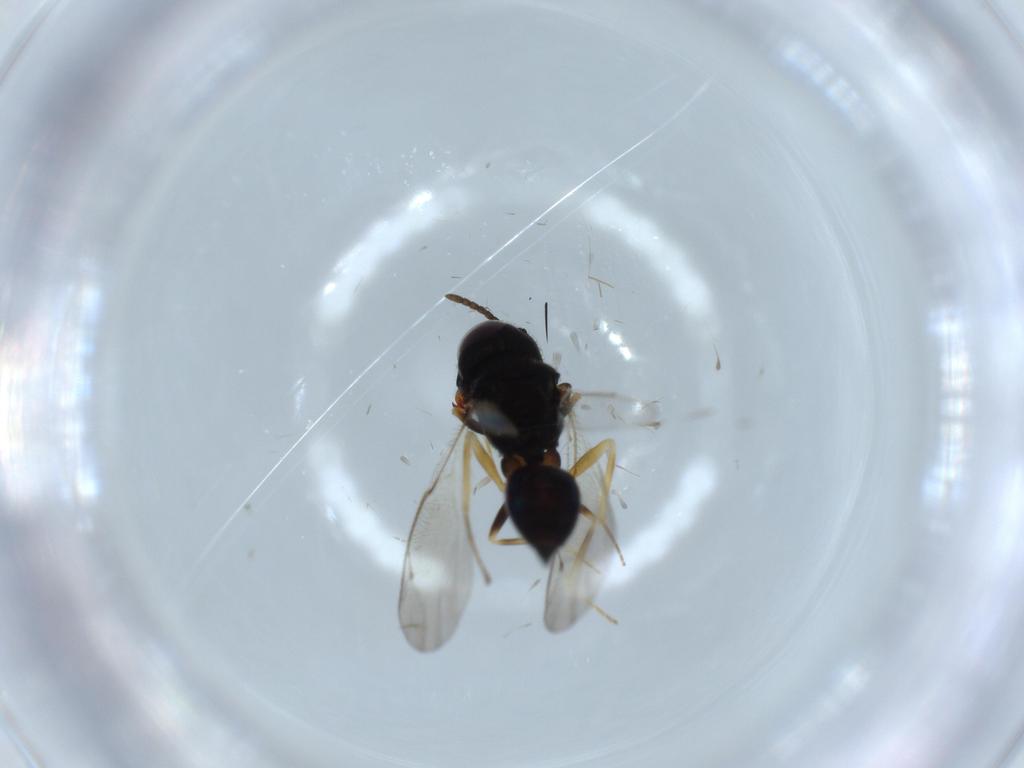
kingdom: Animalia
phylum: Arthropoda
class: Insecta
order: Hymenoptera
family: Pteromalidae
